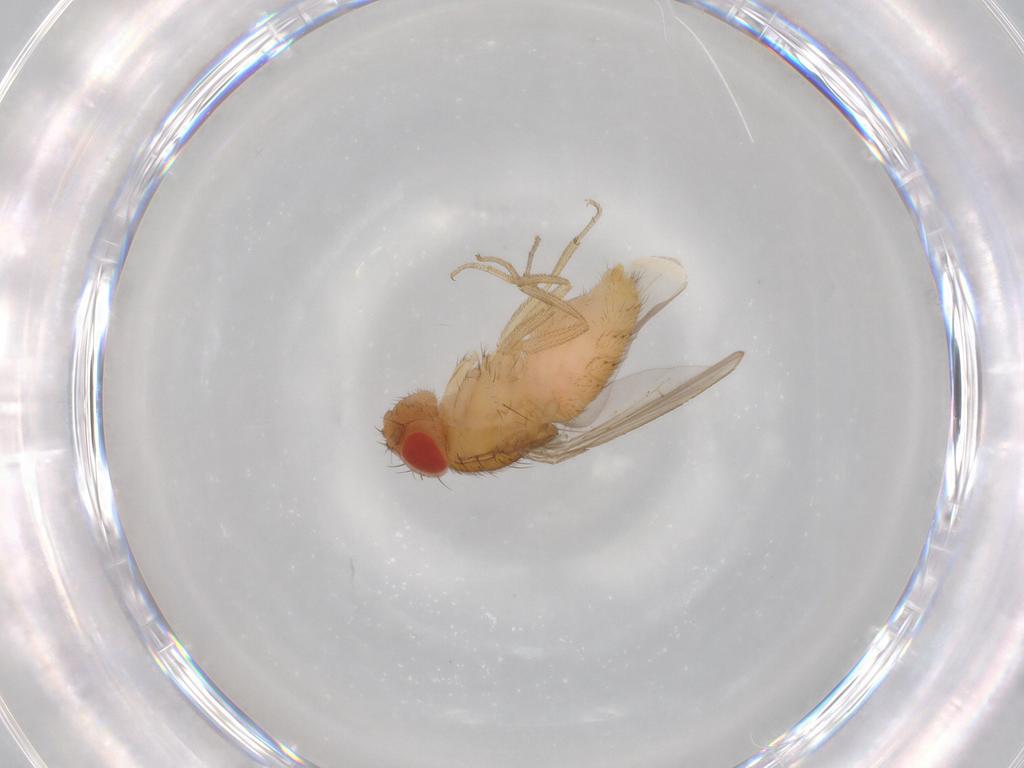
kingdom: Animalia
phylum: Arthropoda
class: Insecta
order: Diptera
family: Drosophilidae
